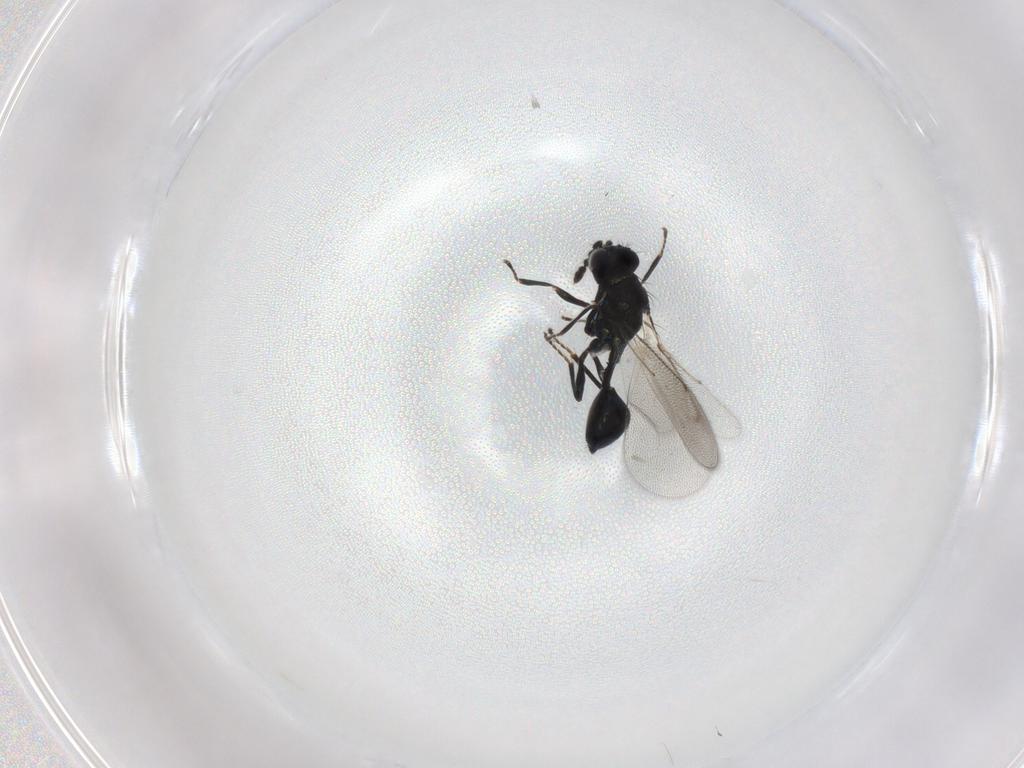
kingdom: Animalia
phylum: Arthropoda
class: Insecta
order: Hymenoptera
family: Eulophidae
